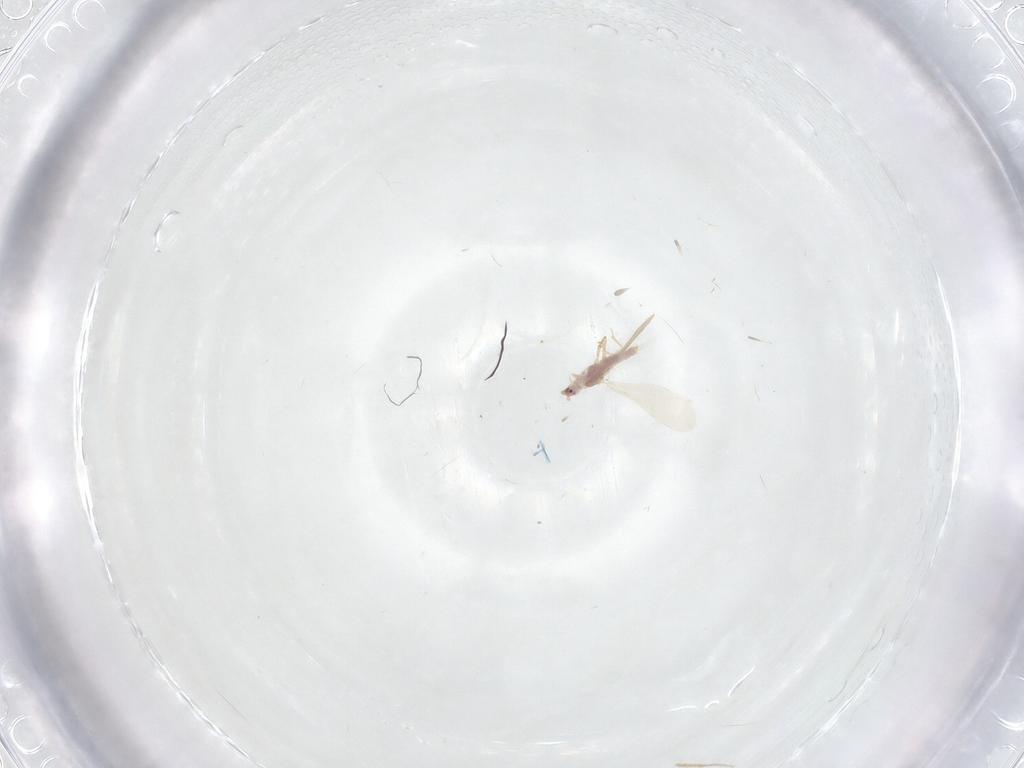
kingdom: Animalia
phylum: Arthropoda
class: Insecta
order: Hemiptera
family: Pseudococcidae
